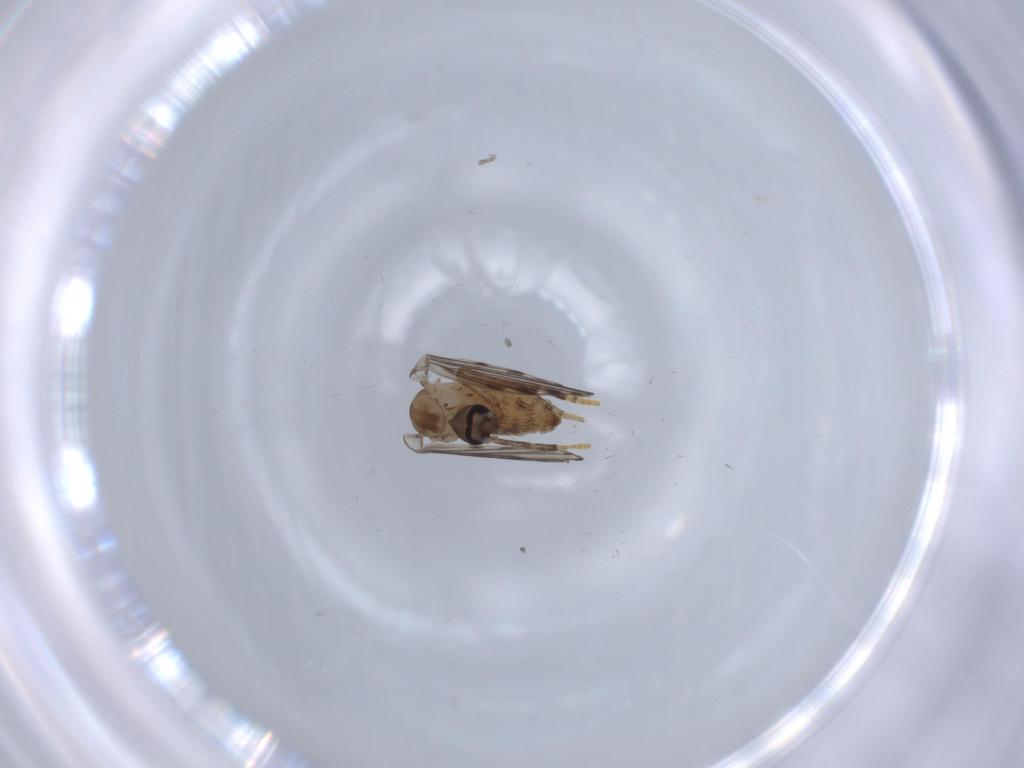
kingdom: Animalia
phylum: Arthropoda
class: Insecta
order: Diptera
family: Psychodidae
